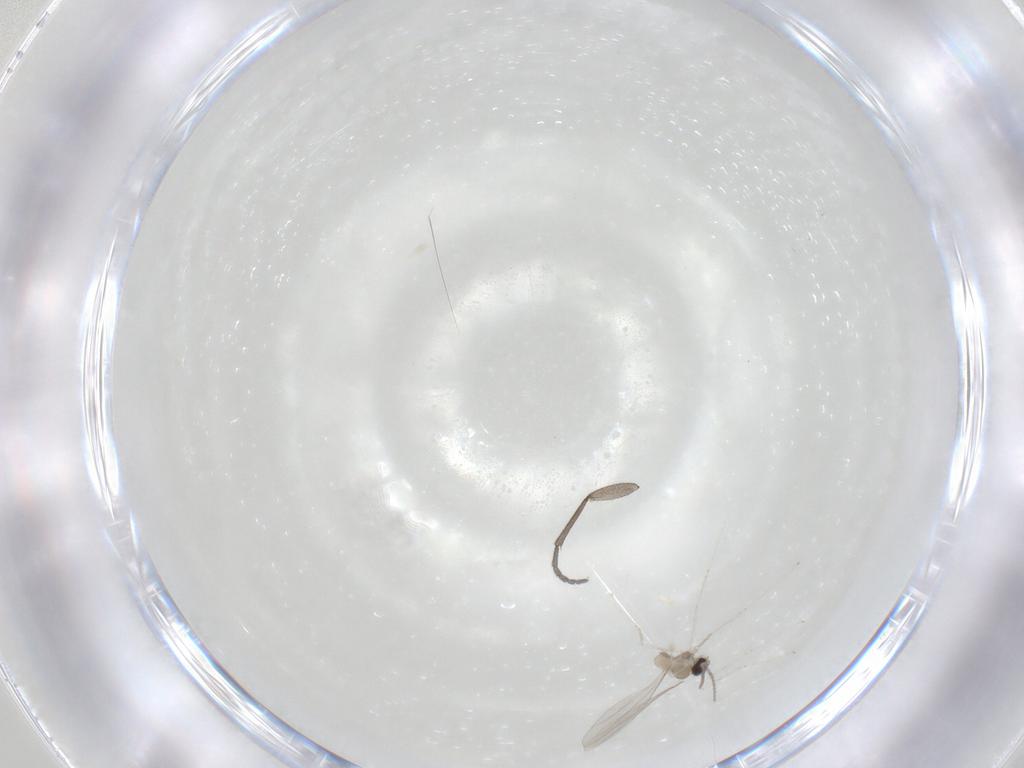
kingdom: Animalia
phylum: Arthropoda
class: Insecta
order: Diptera
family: Sciaridae
